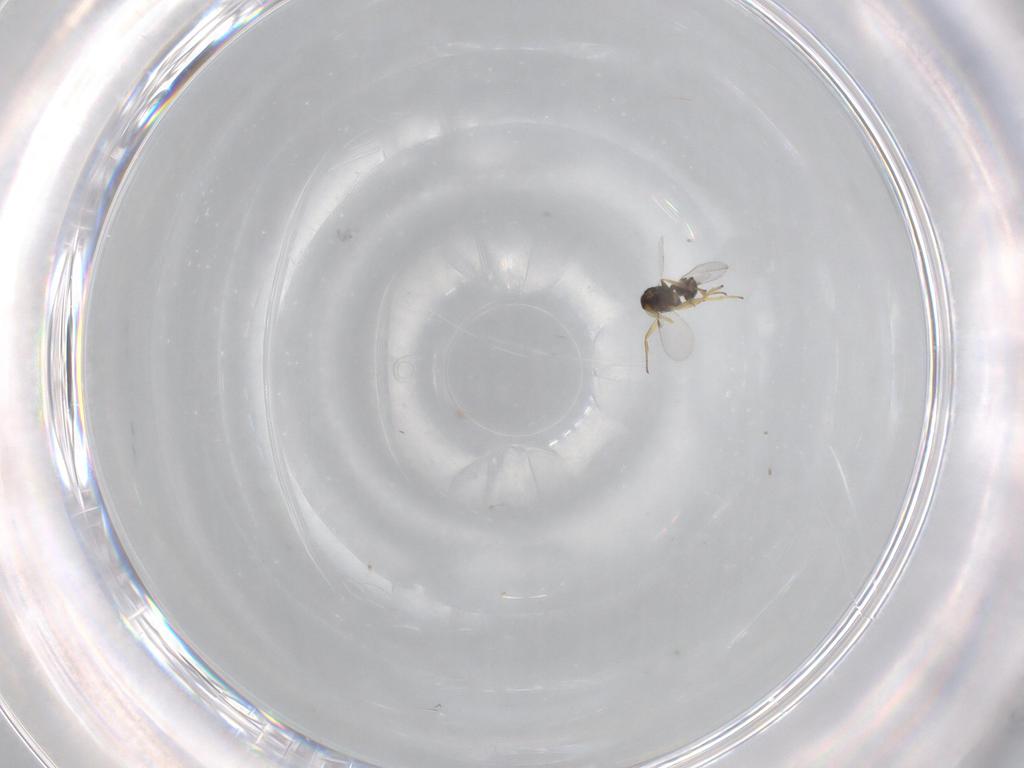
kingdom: Animalia
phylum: Arthropoda
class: Insecta
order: Hymenoptera
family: Encyrtidae
